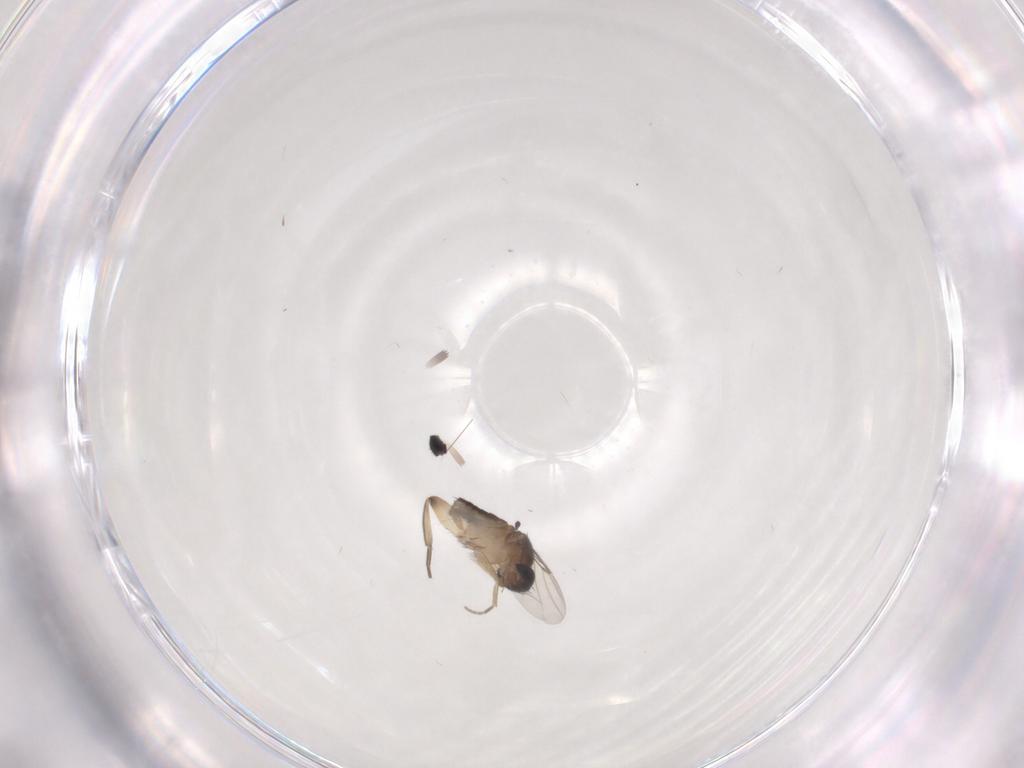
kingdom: Animalia
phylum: Arthropoda
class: Insecta
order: Diptera
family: Phoridae
